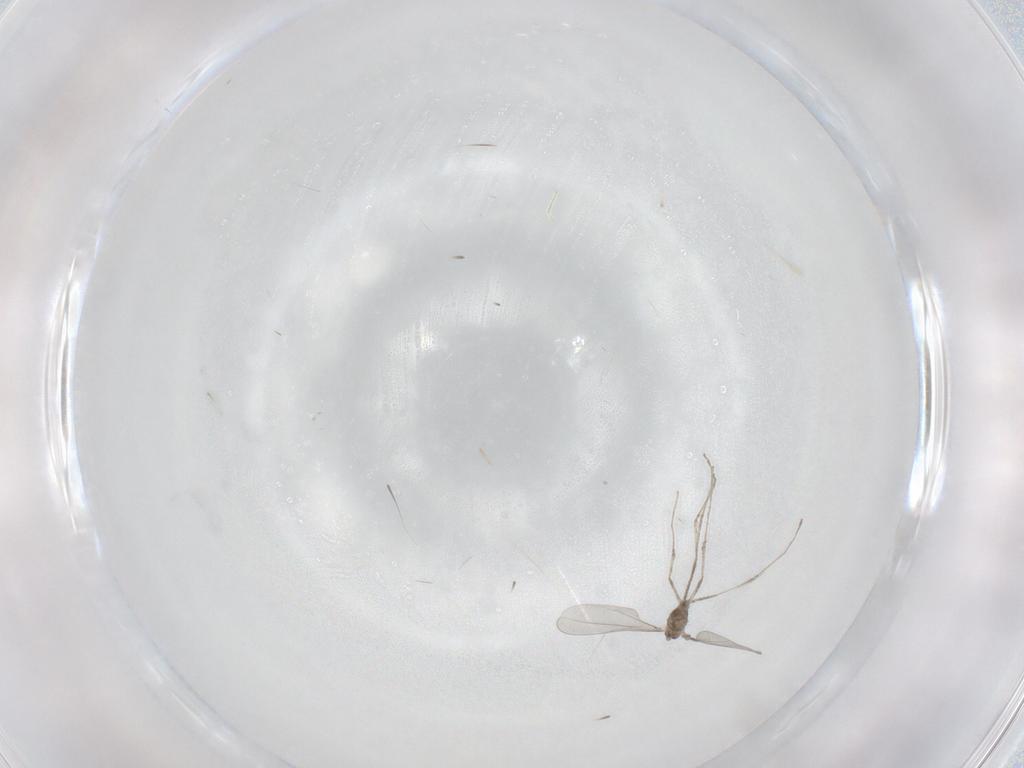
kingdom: Animalia
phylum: Arthropoda
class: Insecta
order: Diptera
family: Cecidomyiidae
